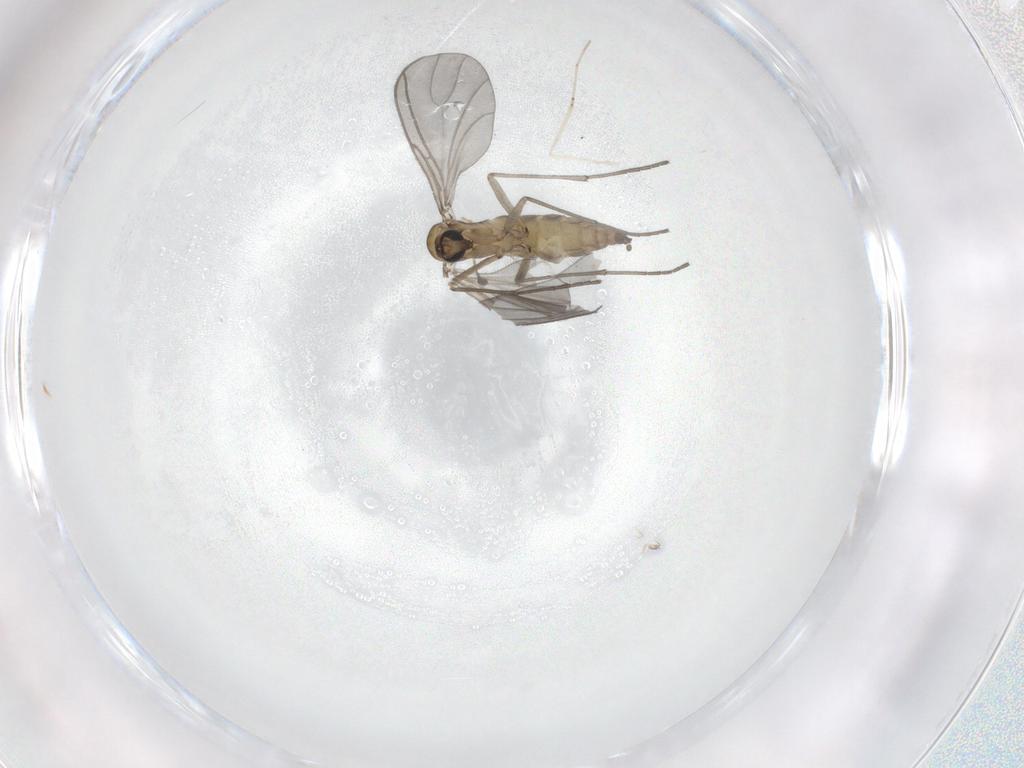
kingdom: Animalia
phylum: Arthropoda
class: Insecta
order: Diptera
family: Sciaridae
